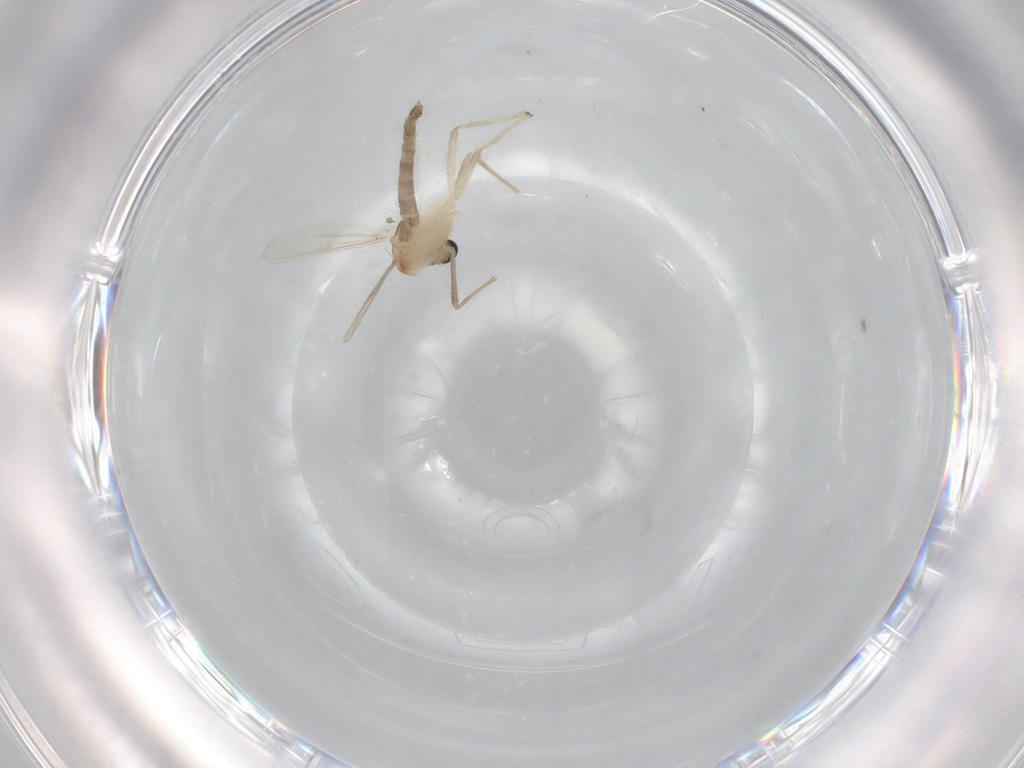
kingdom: Animalia
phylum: Arthropoda
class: Insecta
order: Diptera
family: Chironomidae
